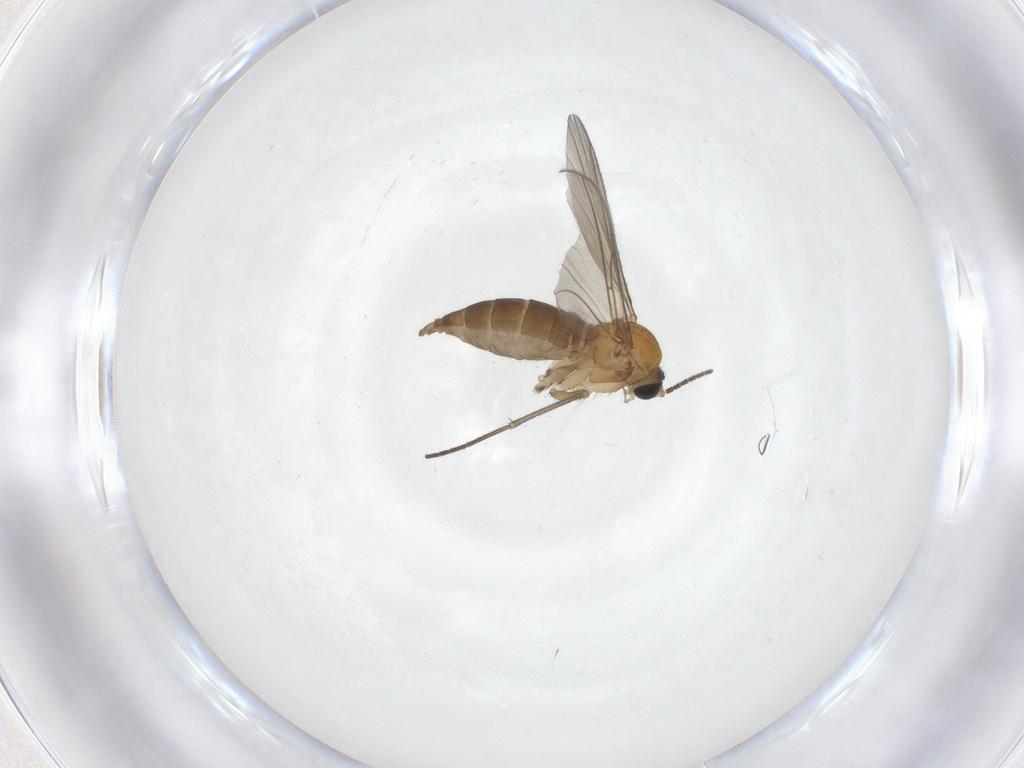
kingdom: Animalia
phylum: Arthropoda
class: Insecta
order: Diptera
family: Sciaridae
